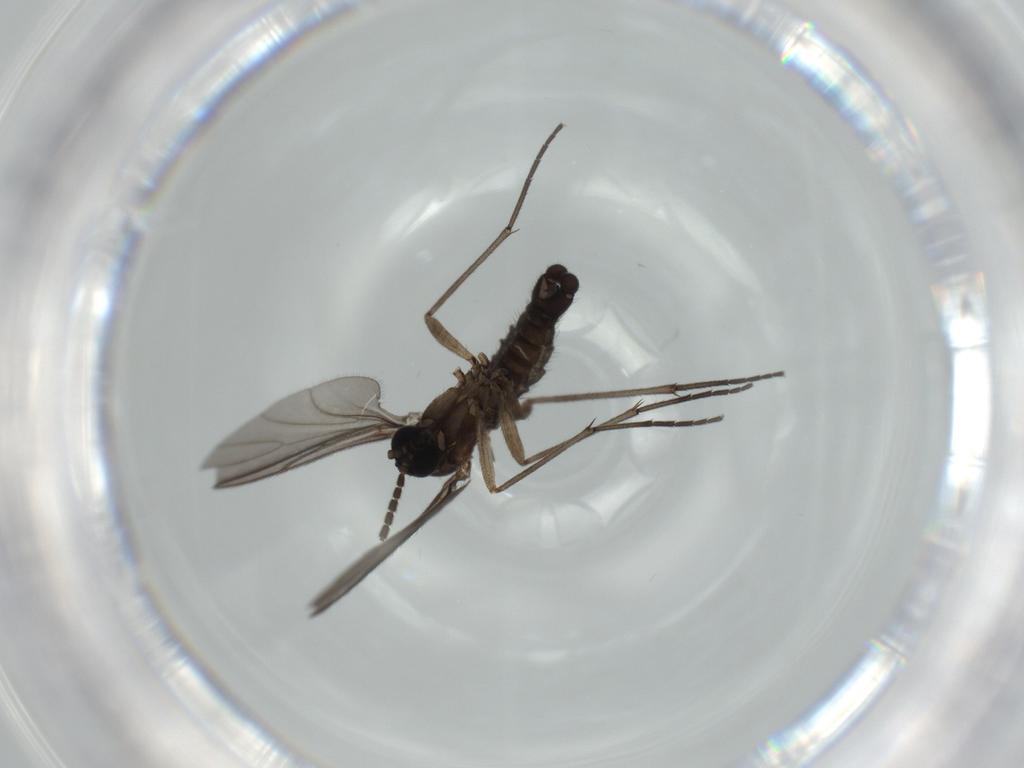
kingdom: Animalia
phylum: Arthropoda
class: Insecta
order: Diptera
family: Sciaridae
